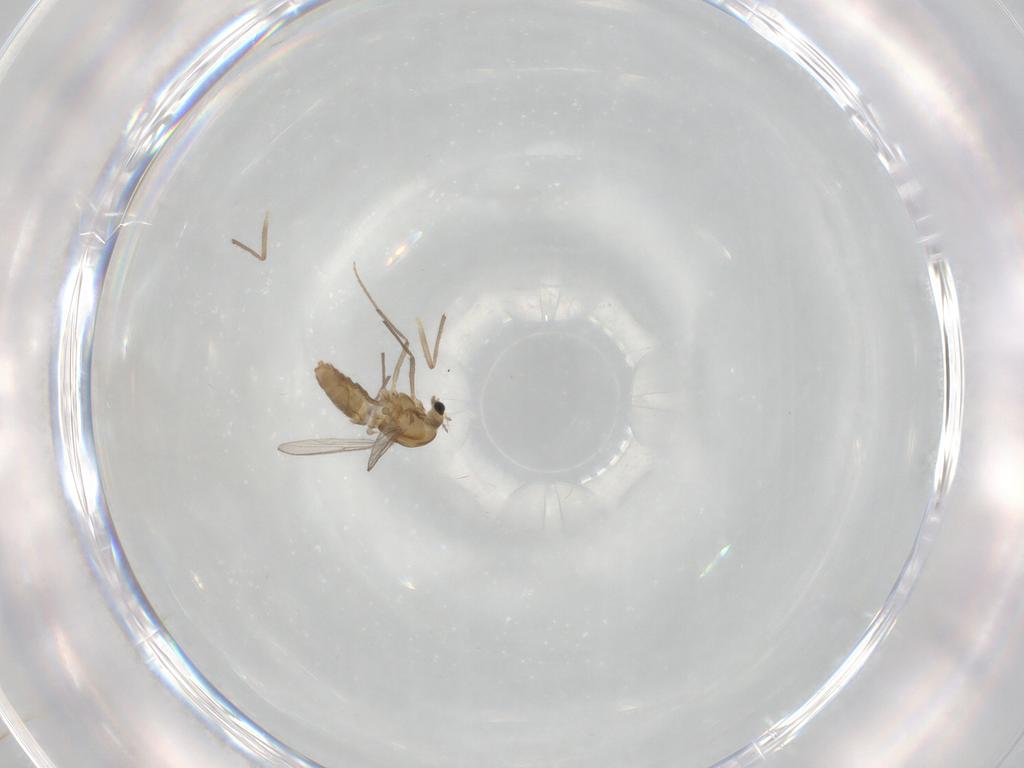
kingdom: Animalia
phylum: Arthropoda
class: Insecta
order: Diptera
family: Chironomidae
